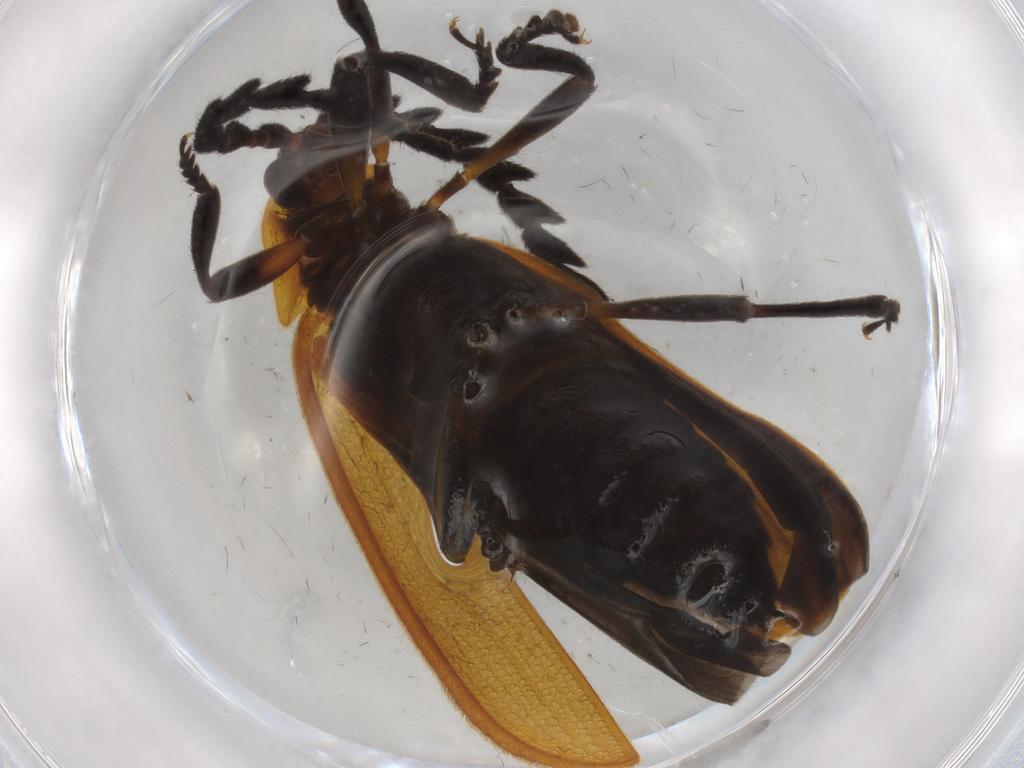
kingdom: Animalia
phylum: Arthropoda
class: Insecta
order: Coleoptera
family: Lycidae
